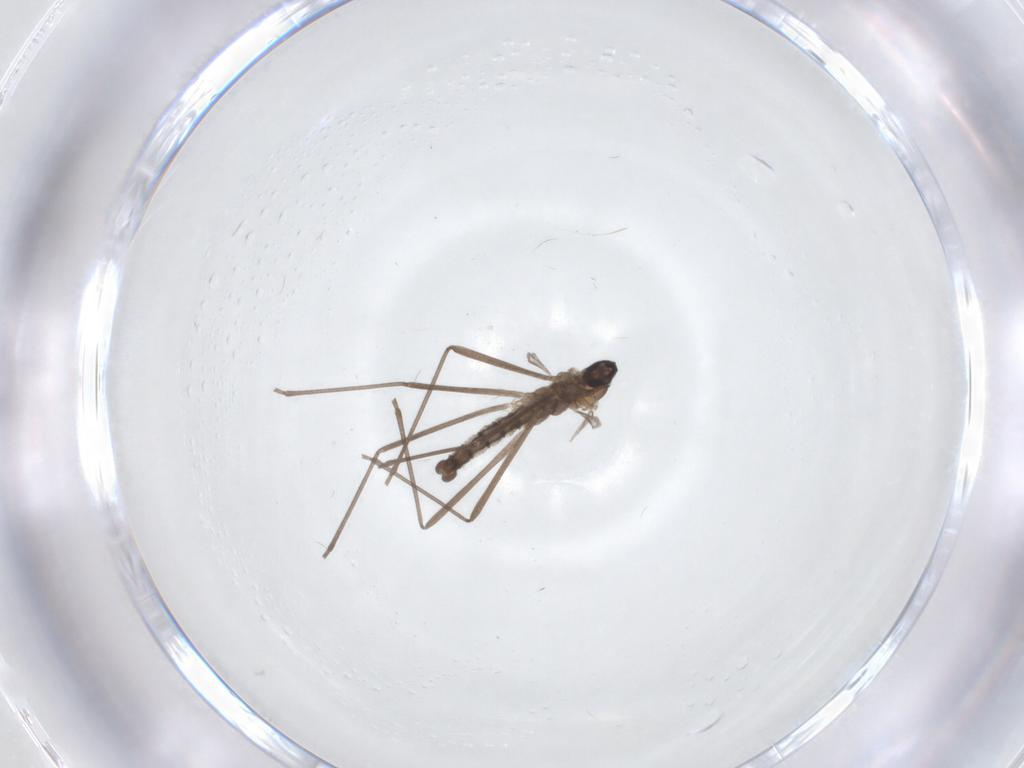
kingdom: Animalia
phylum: Arthropoda
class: Insecta
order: Diptera
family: Cecidomyiidae
